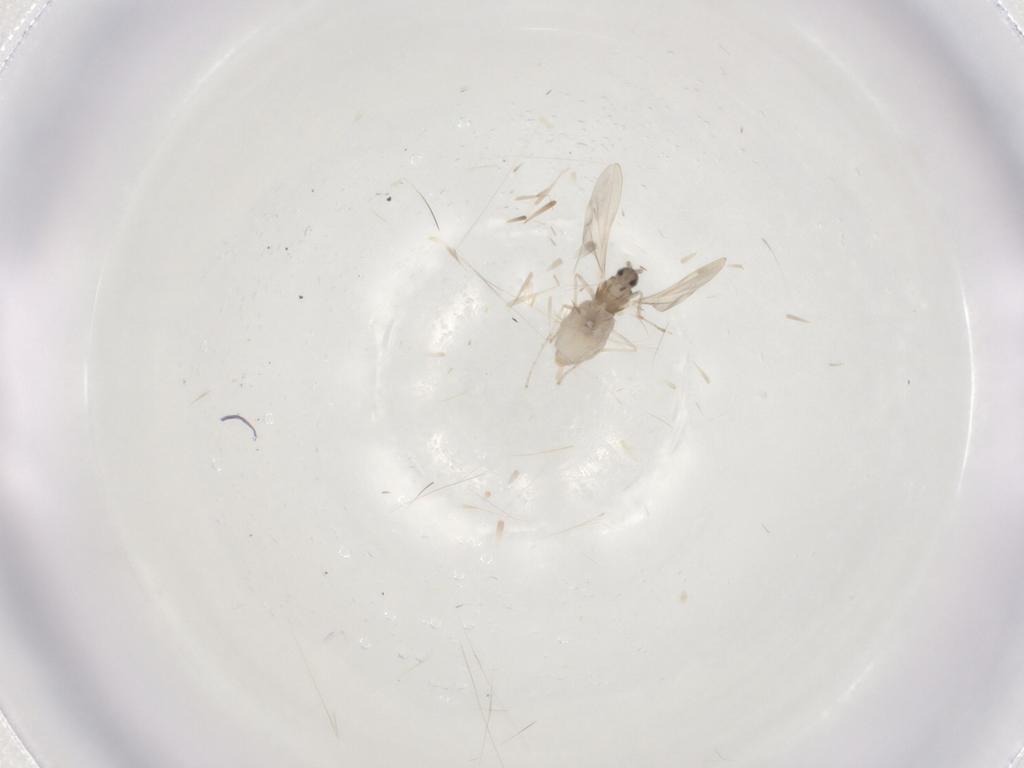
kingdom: Animalia
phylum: Arthropoda
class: Insecta
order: Diptera
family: Cecidomyiidae
